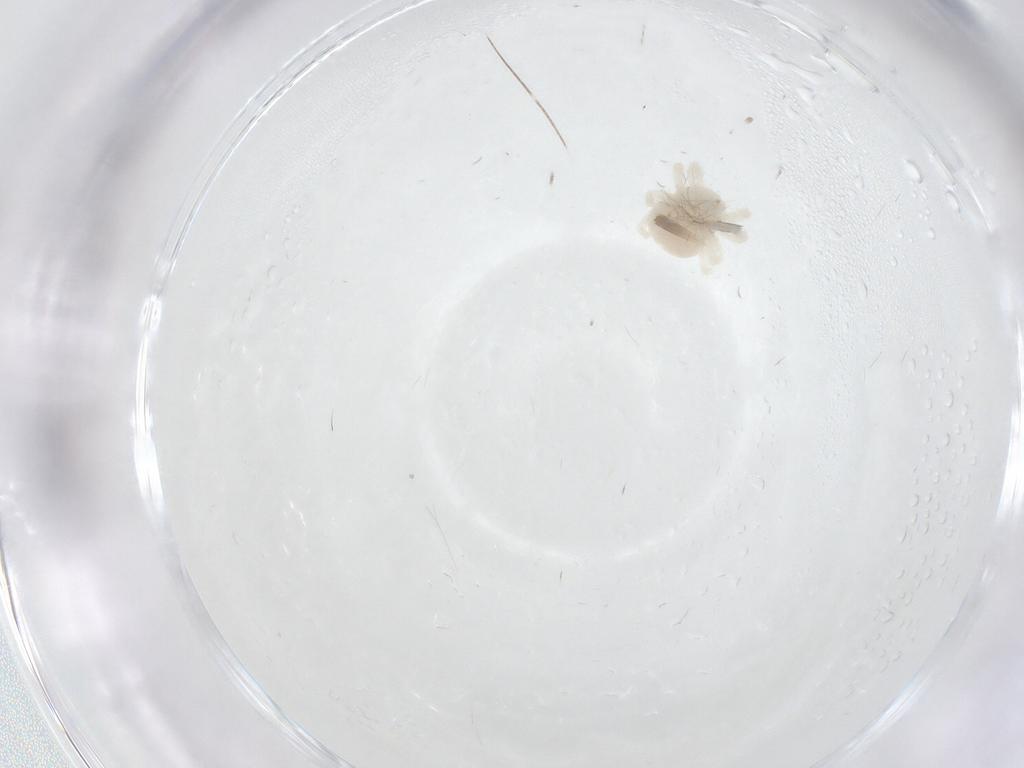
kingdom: Animalia
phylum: Arthropoda
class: Arachnida
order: Trombidiformes
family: Anystidae
